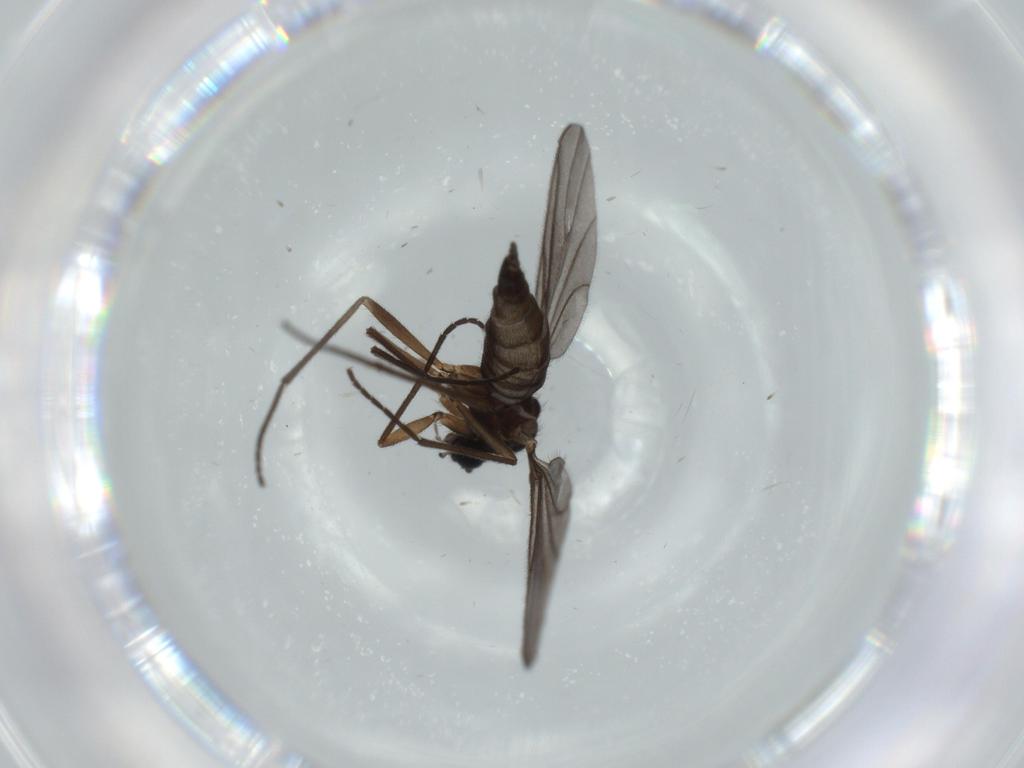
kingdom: Animalia
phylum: Arthropoda
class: Insecta
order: Diptera
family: Sciaridae
